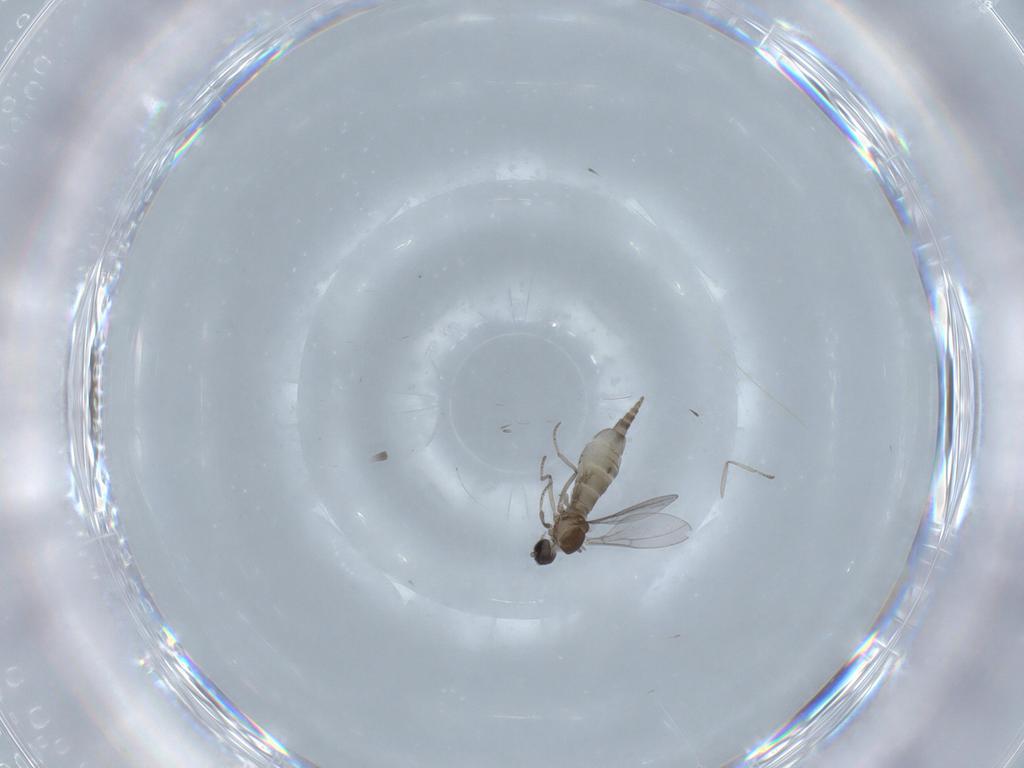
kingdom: Animalia
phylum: Arthropoda
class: Insecta
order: Diptera
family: Cecidomyiidae
